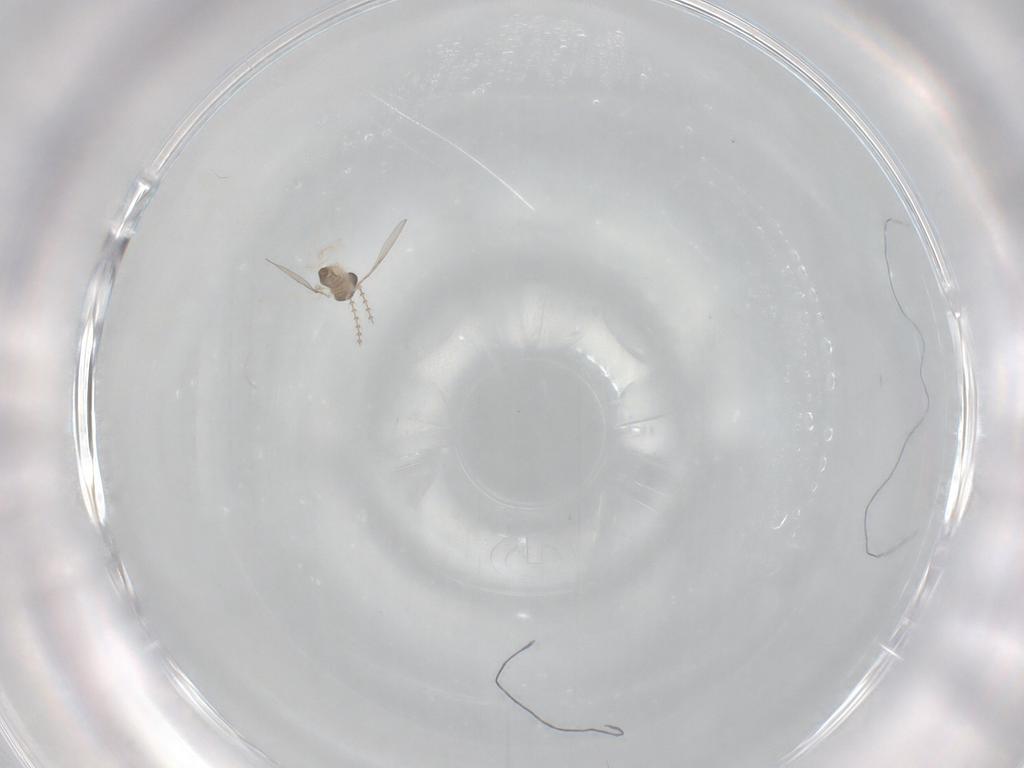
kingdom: Animalia
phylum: Arthropoda
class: Insecta
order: Diptera
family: Cecidomyiidae
